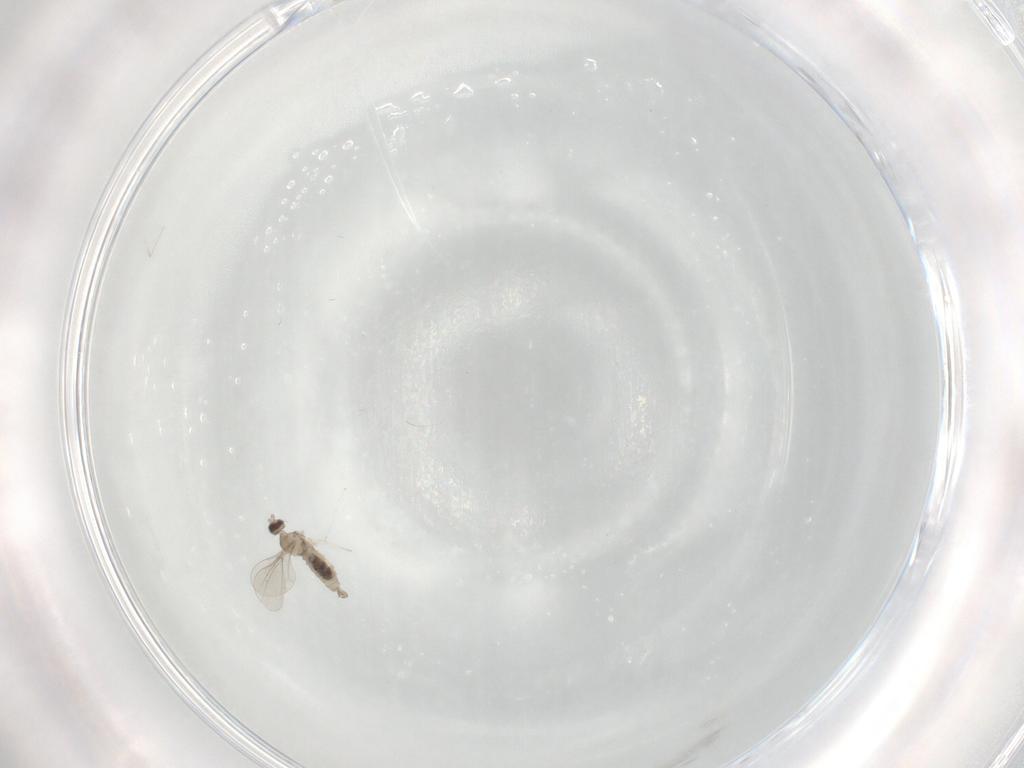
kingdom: Animalia
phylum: Arthropoda
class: Insecta
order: Diptera
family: Cecidomyiidae
